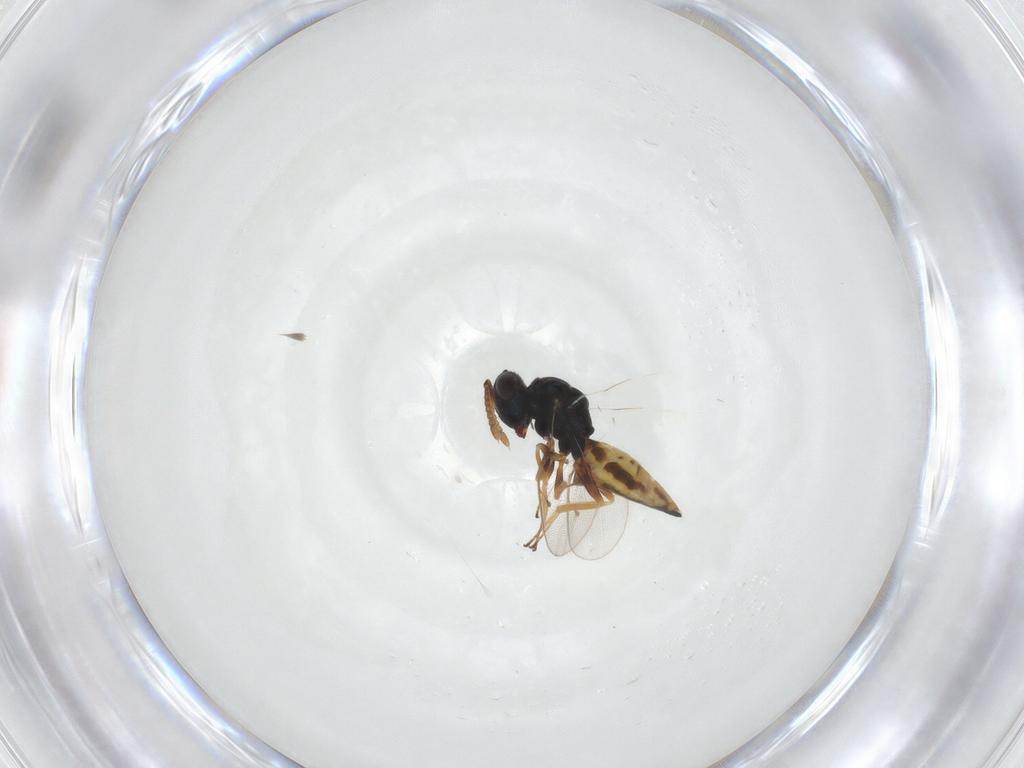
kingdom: Animalia
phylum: Arthropoda
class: Insecta
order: Hymenoptera
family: Pteromalidae
